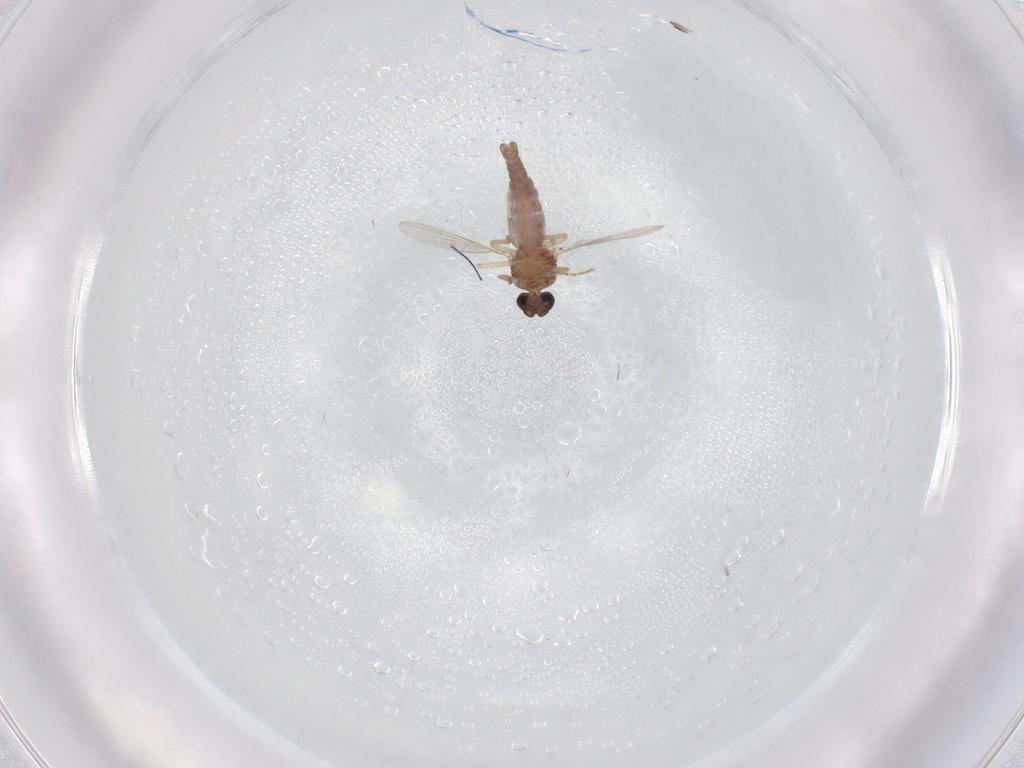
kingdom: Animalia
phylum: Arthropoda
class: Insecta
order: Diptera
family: Ceratopogonidae
